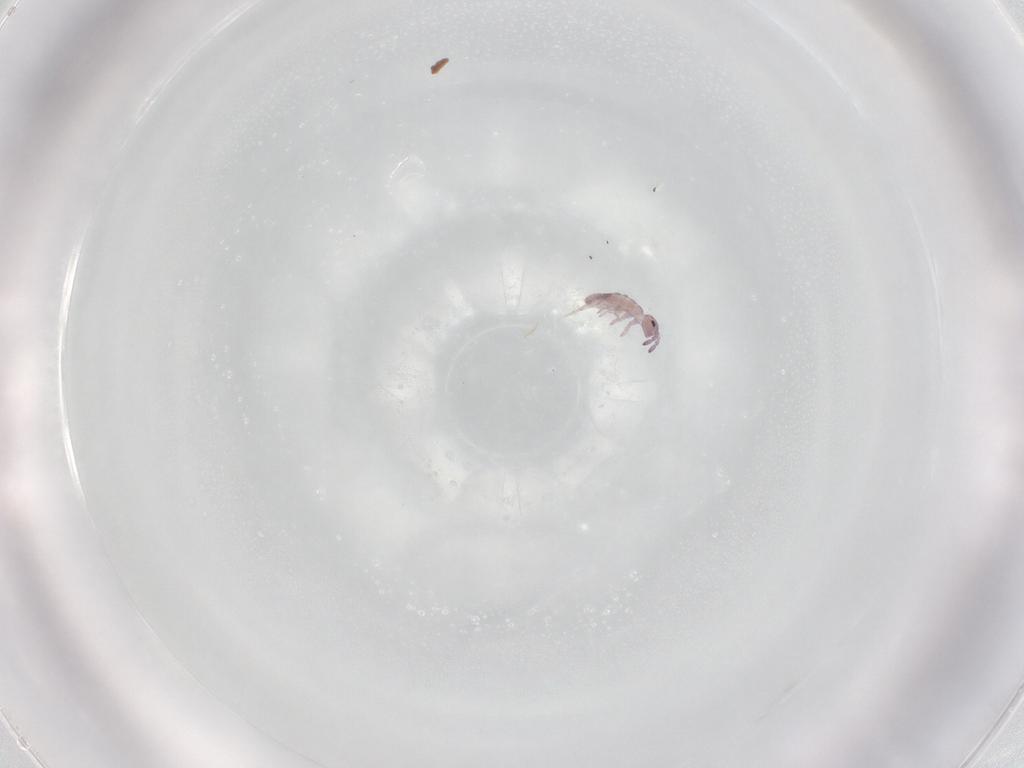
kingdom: Animalia
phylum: Arthropoda
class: Collembola
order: Entomobryomorpha
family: Isotomidae
